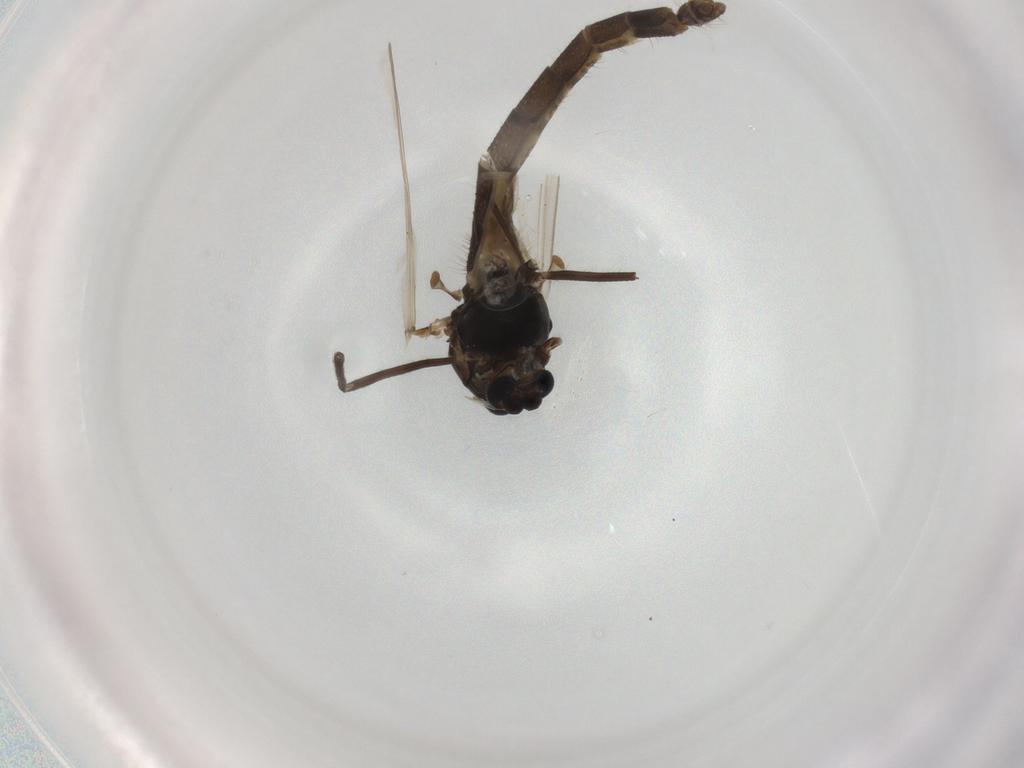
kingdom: Animalia
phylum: Arthropoda
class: Insecta
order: Diptera
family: Chironomidae
